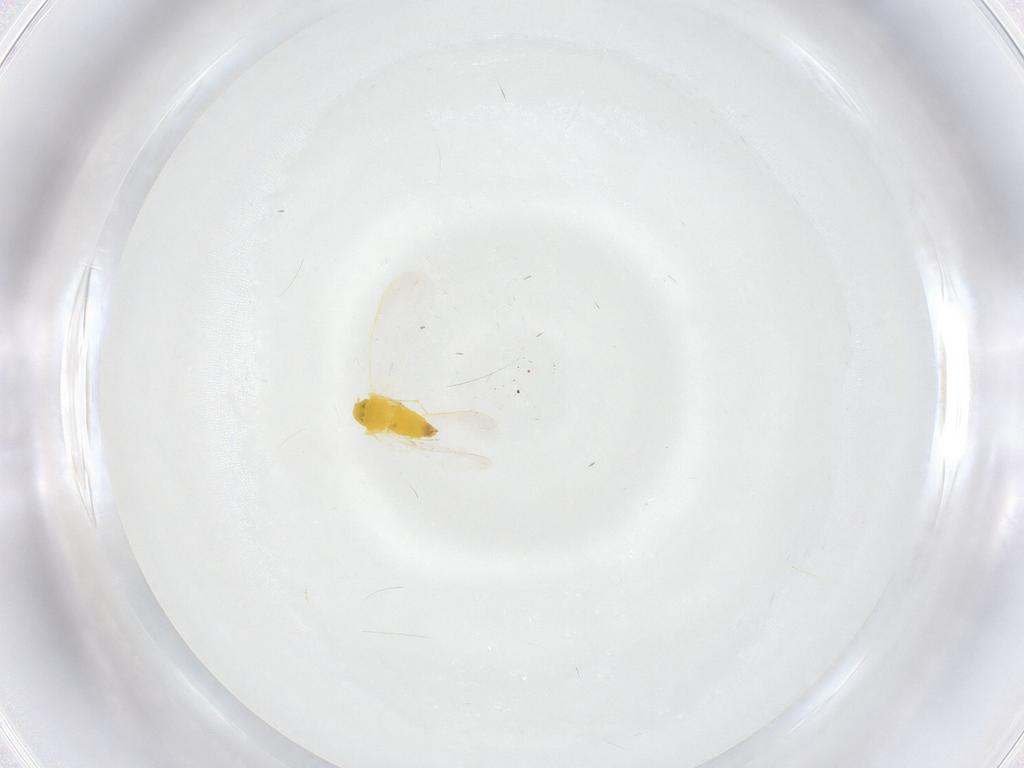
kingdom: Animalia
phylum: Arthropoda
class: Insecta
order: Hemiptera
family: Aleyrodidae
